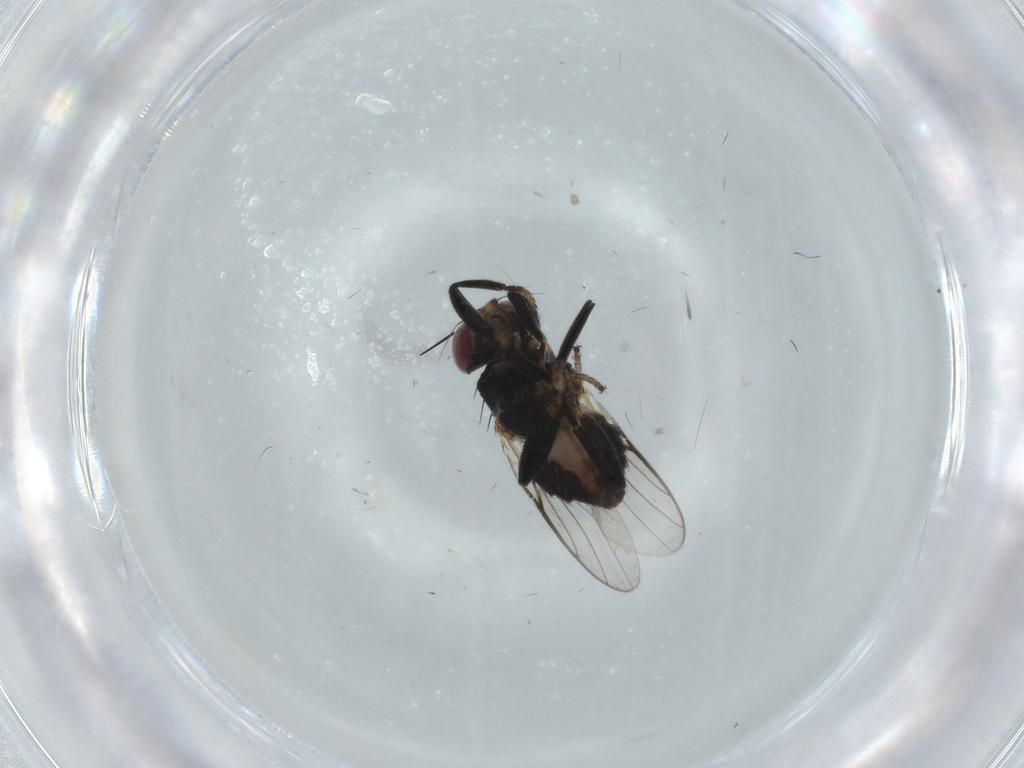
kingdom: Animalia
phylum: Arthropoda
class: Insecta
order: Diptera
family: Chloropidae
